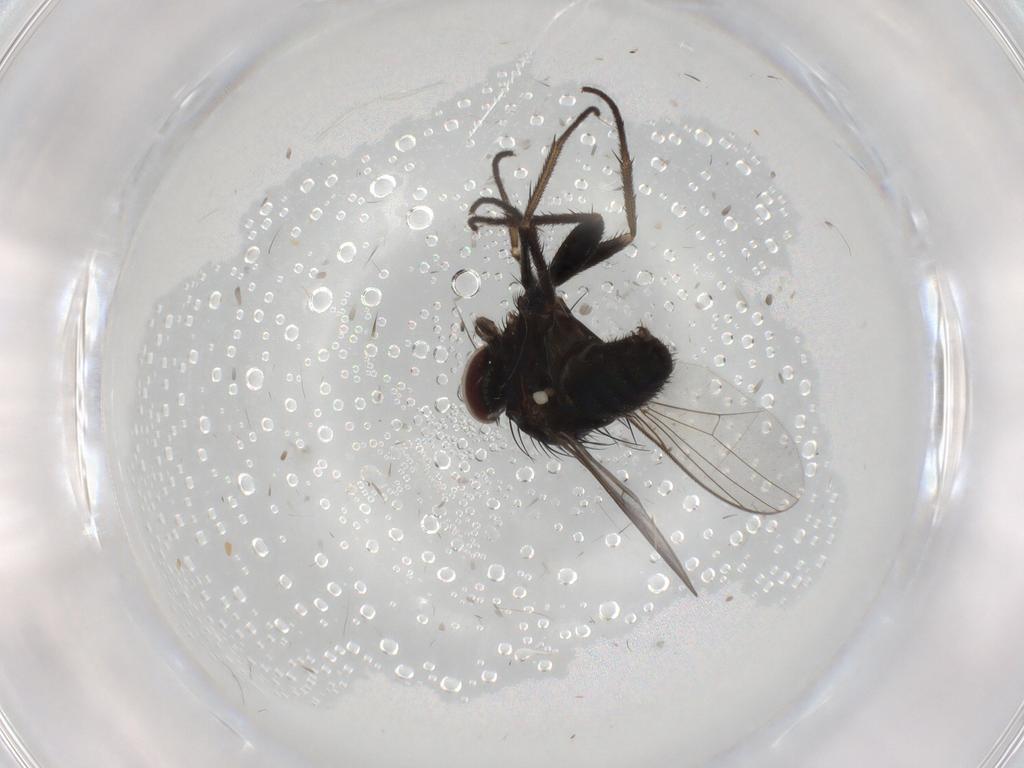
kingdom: Animalia
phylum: Arthropoda
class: Insecta
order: Diptera
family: Dolichopodidae
